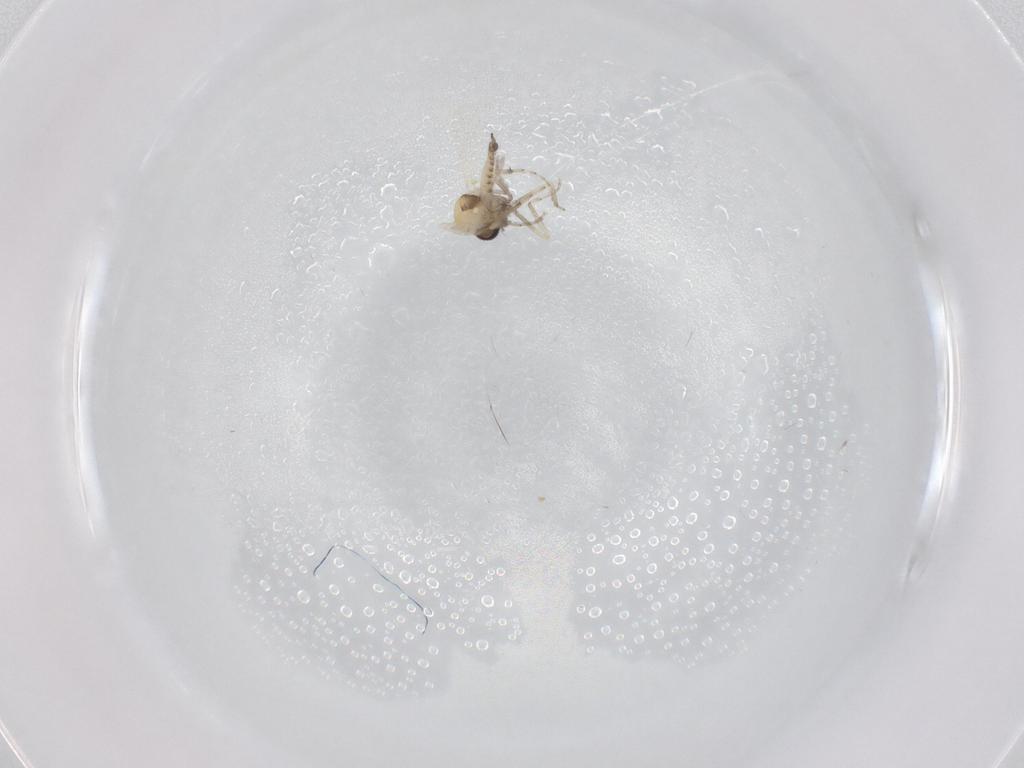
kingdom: Animalia
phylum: Arthropoda
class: Insecta
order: Diptera
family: Ceratopogonidae
